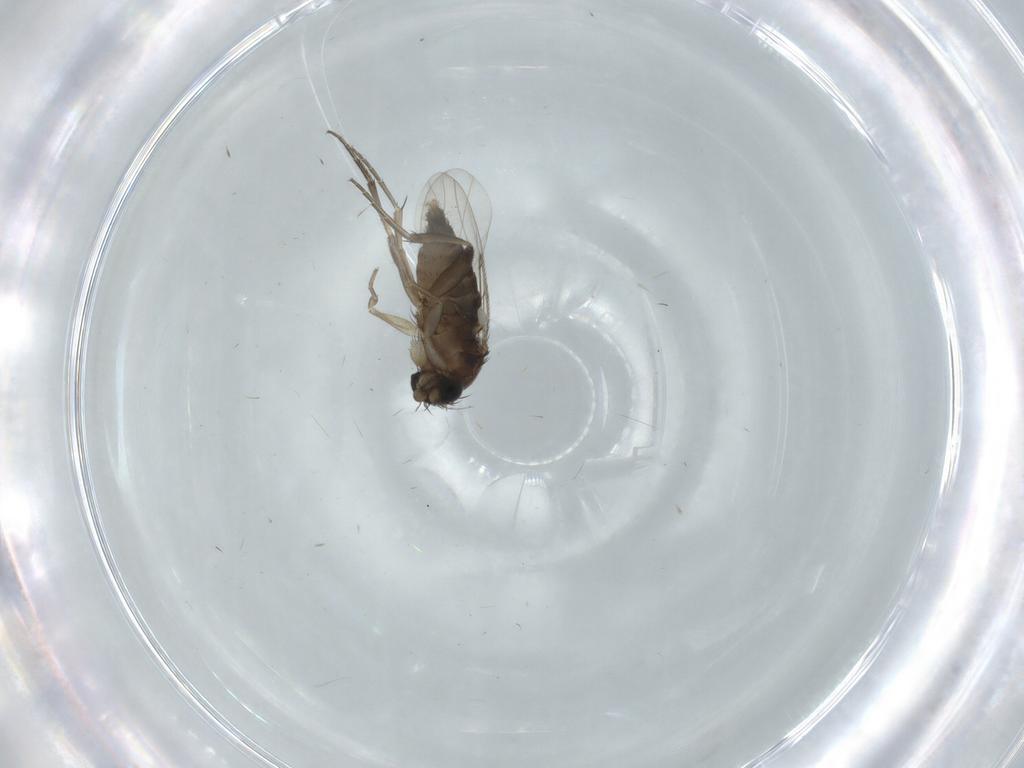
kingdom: Animalia
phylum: Arthropoda
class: Insecta
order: Diptera
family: Phoridae
